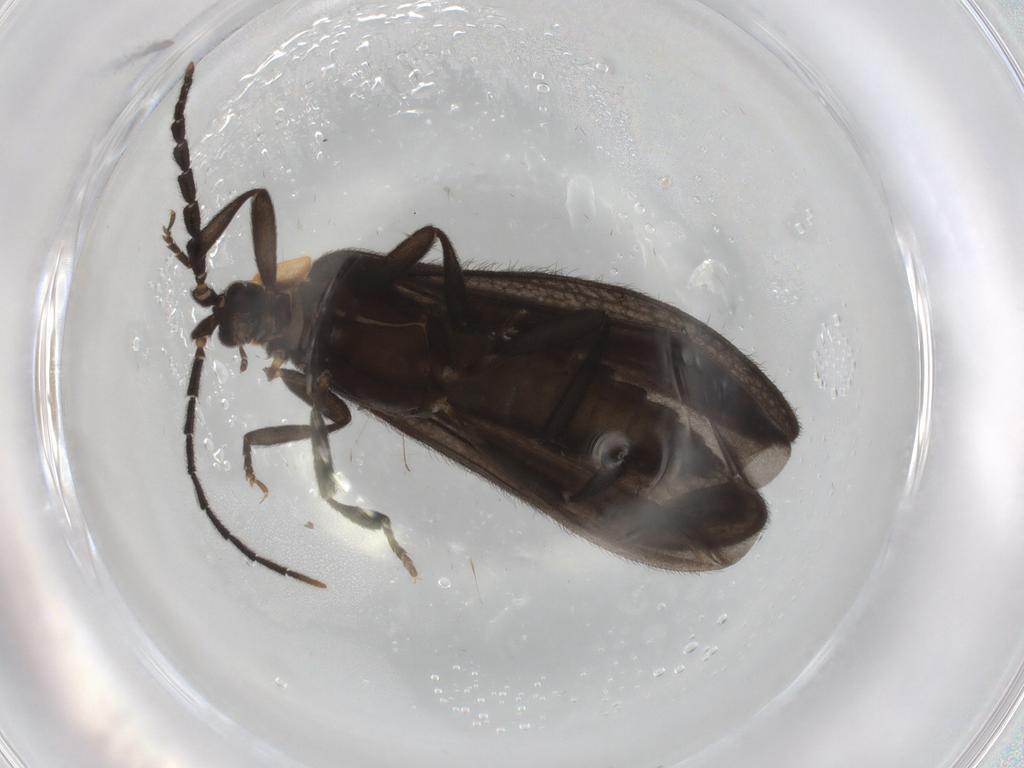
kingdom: Animalia
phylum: Arthropoda
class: Insecta
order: Coleoptera
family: Lycidae
